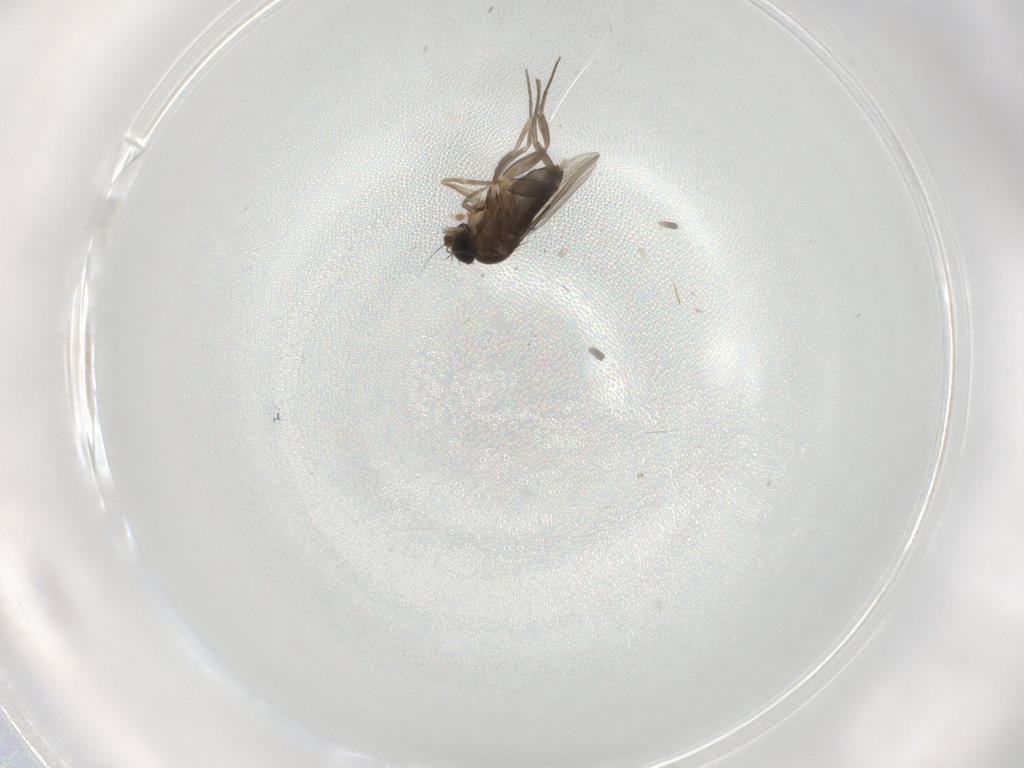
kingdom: Animalia
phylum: Arthropoda
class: Insecta
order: Diptera
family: Phoridae
